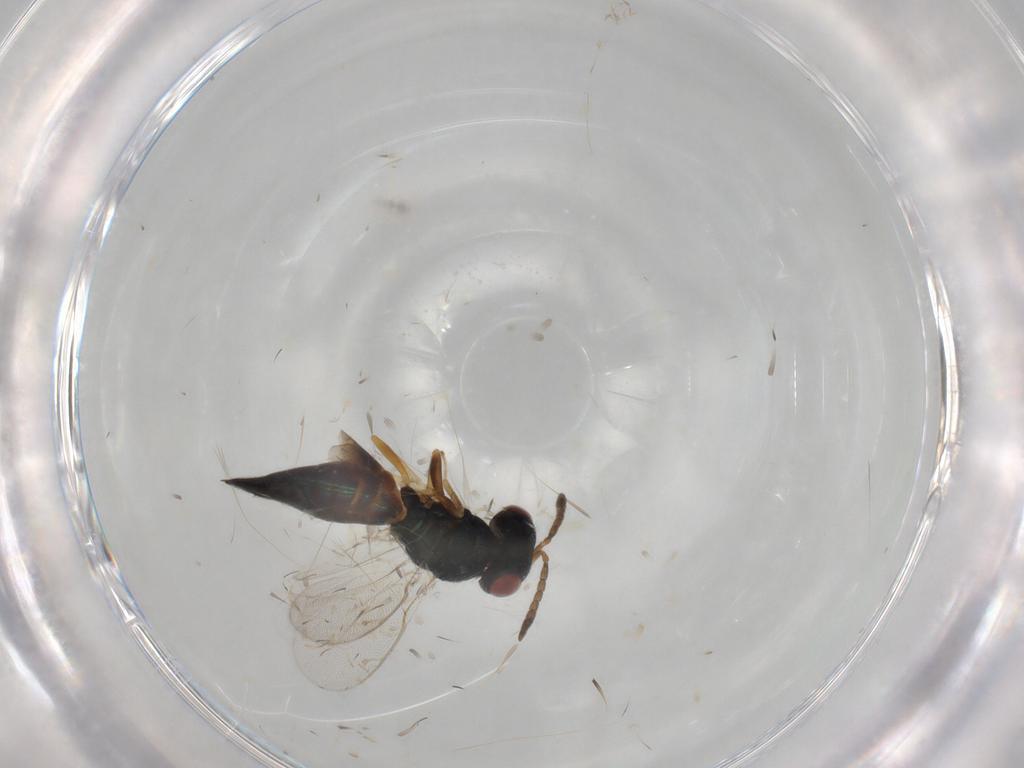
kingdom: Animalia
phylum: Arthropoda
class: Insecta
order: Hymenoptera
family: Pteromalidae
